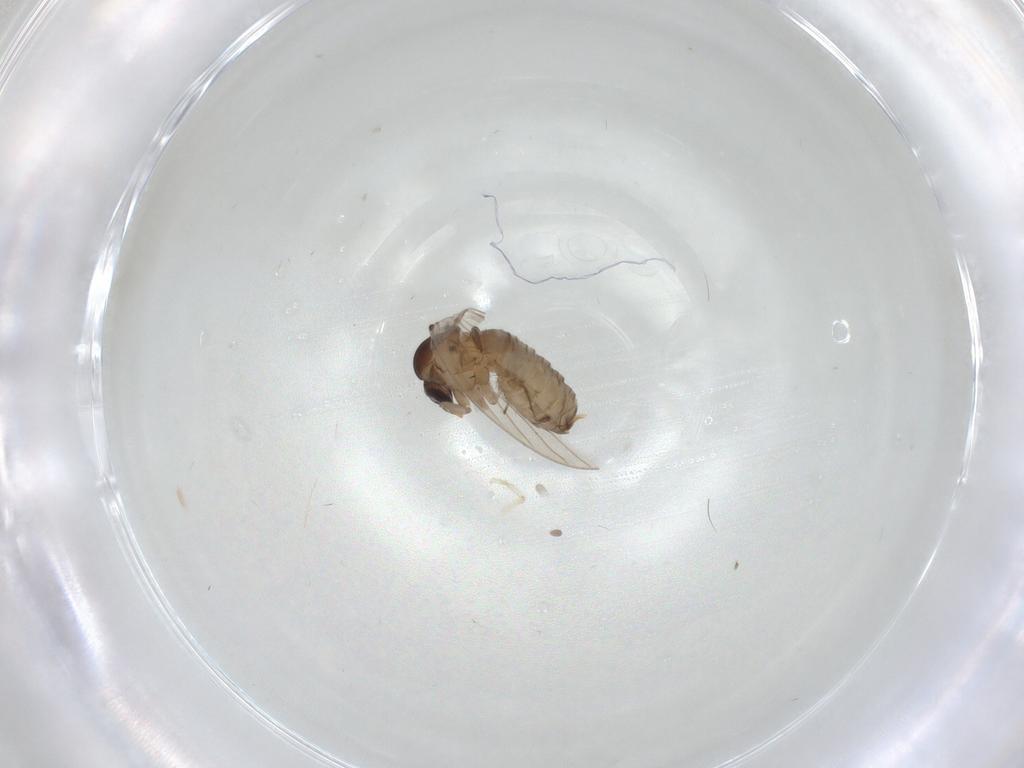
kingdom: Animalia
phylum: Arthropoda
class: Insecta
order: Diptera
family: Psychodidae
